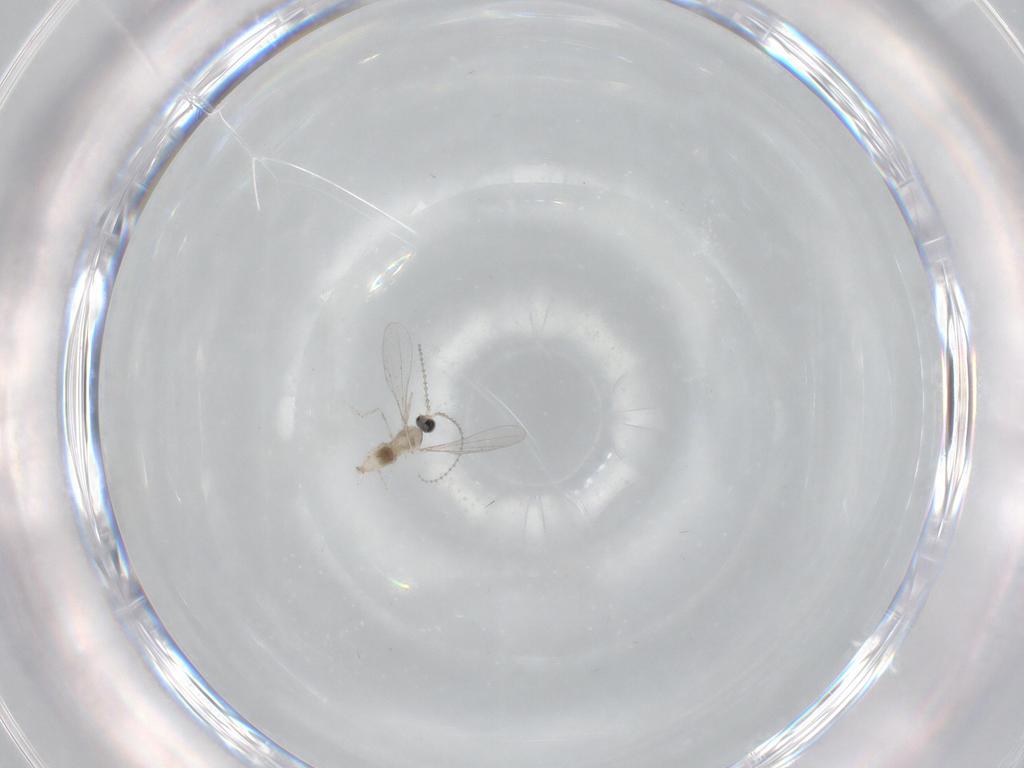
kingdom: Animalia
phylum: Arthropoda
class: Insecta
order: Diptera
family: Cecidomyiidae
